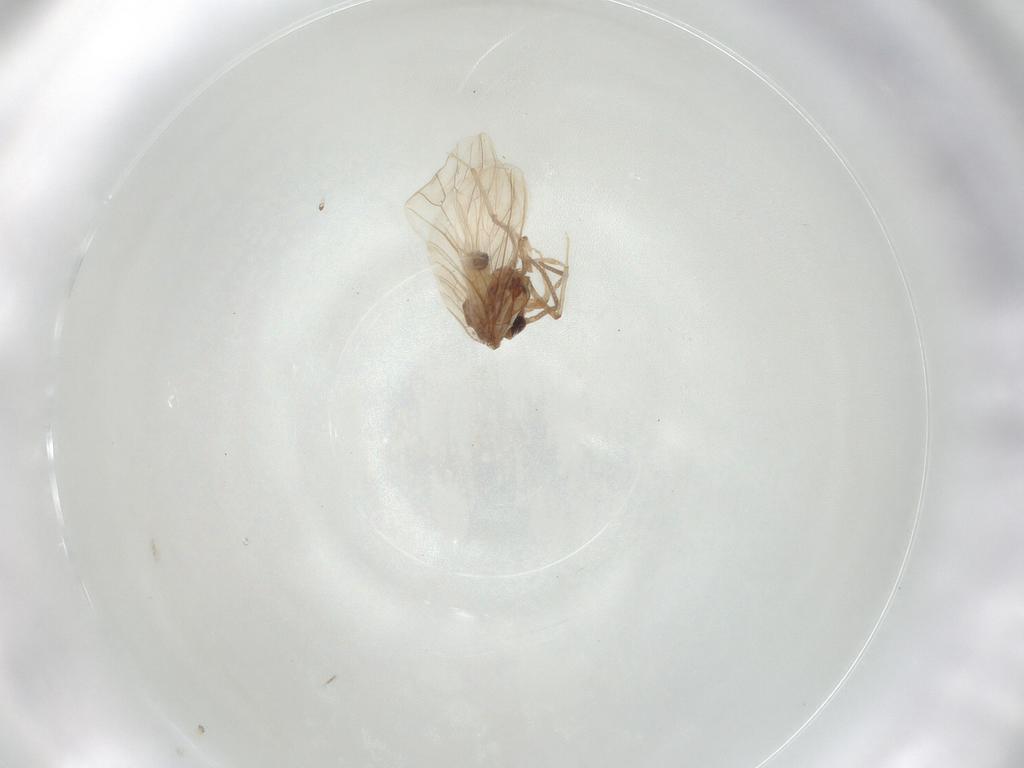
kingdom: Animalia
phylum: Arthropoda
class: Insecta
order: Neuroptera
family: Coniopterygidae
